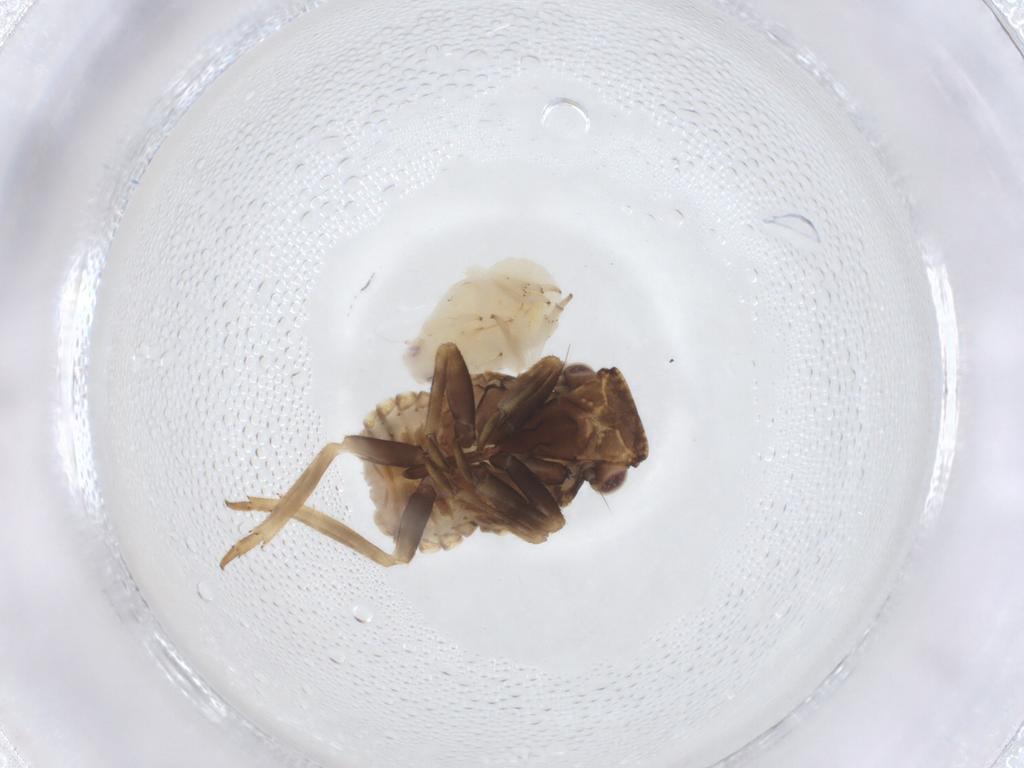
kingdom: Animalia
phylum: Arthropoda
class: Insecta
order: Hemiptera
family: Flatidae
